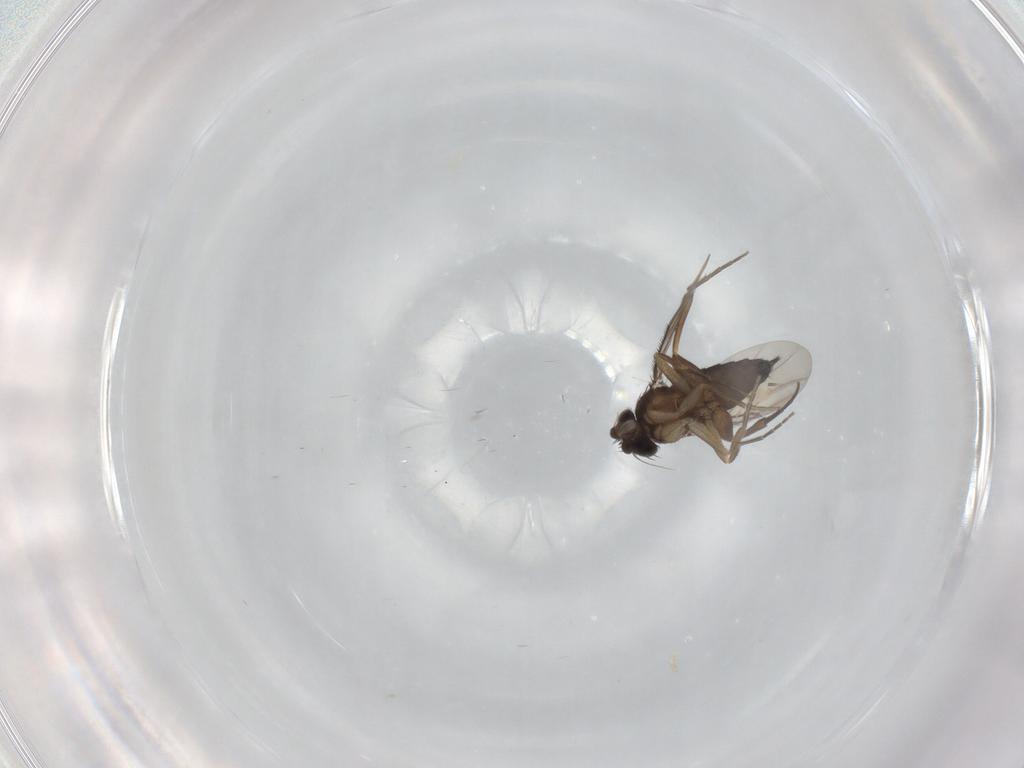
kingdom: Animalia
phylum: Arthropoda
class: Insecta
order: Diptera
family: Phoridae
